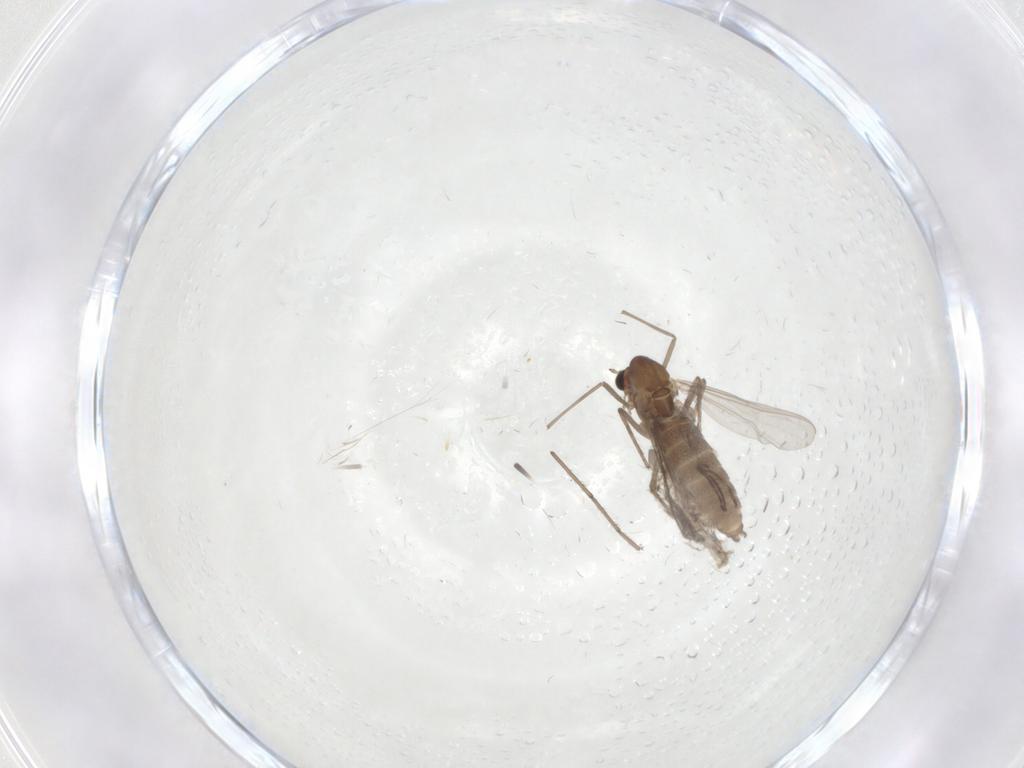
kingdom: Animalia
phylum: Arthropoda
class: Insecta
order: Diptera
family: Chironomidae
